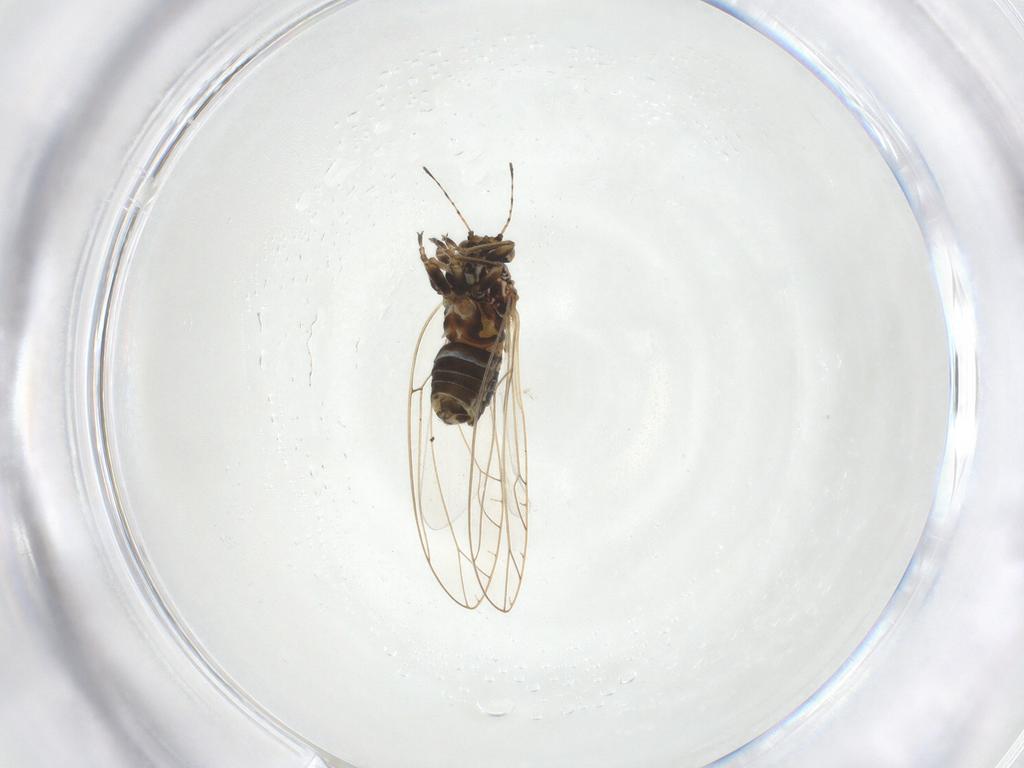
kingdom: Animalia
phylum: Arthropoda
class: Insecta
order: Hemiptera
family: Triozidae
